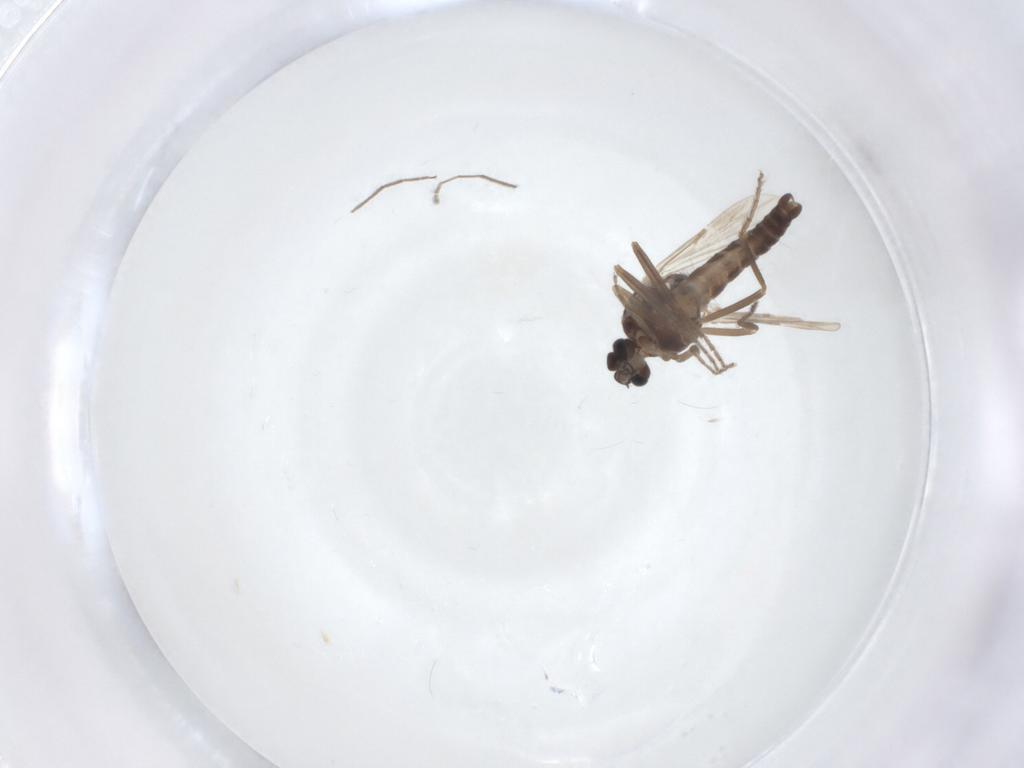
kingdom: Animalia
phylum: Arthropoda
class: Insecta
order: Diptera
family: Ceratopogonidae
